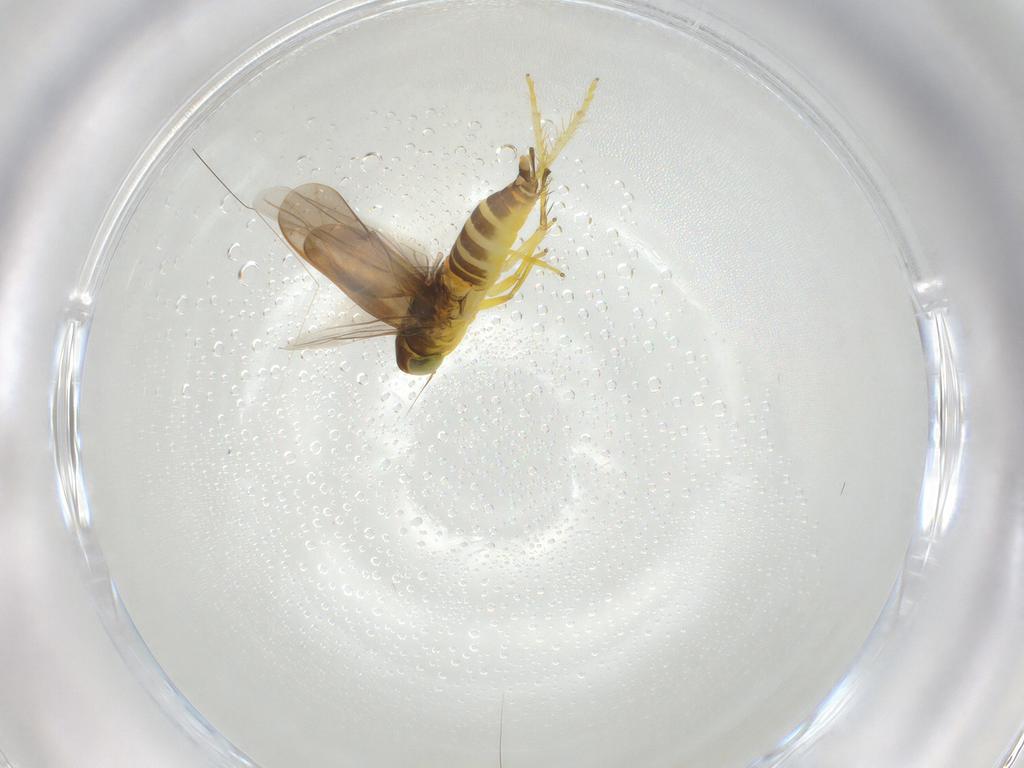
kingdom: Animalia
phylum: Arthropoda
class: Insecta
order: Hemiptera
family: Cicadellidae
